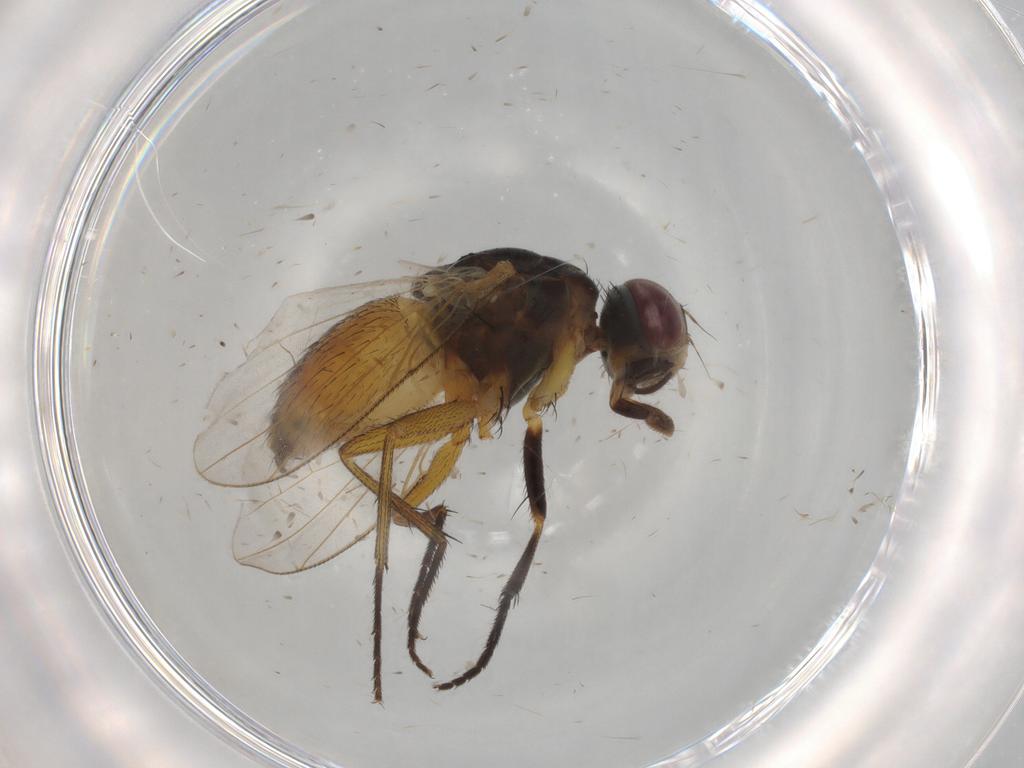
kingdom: Animalia
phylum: Arthropoda
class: Insecta
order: Diptera
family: Muscidae
